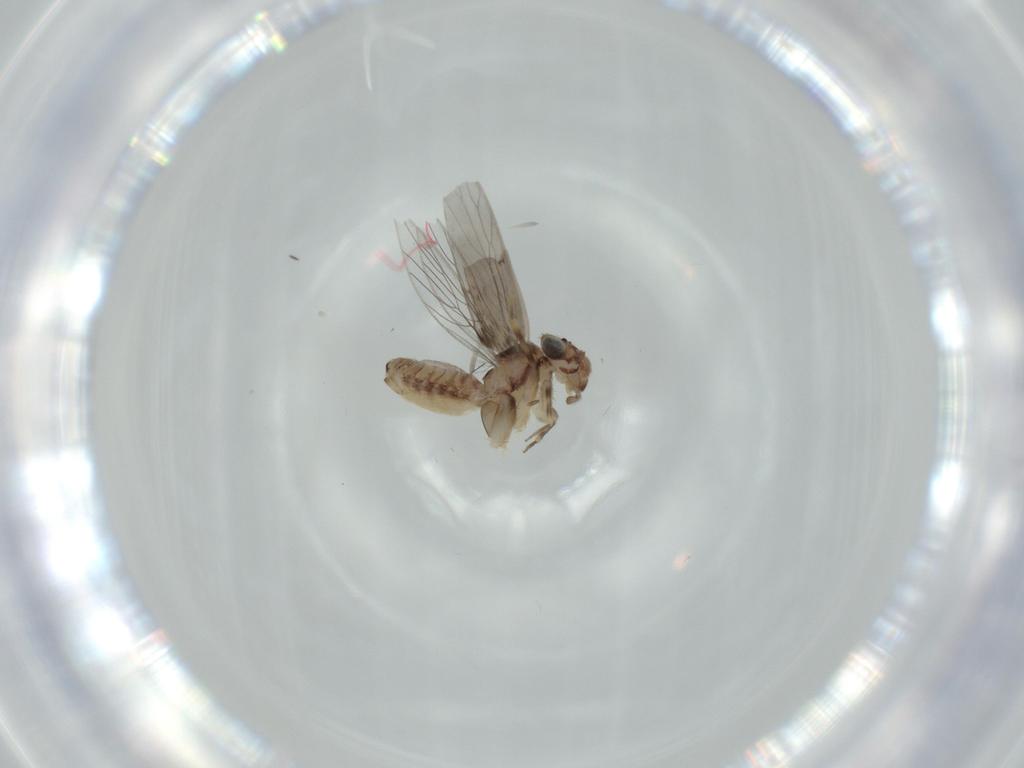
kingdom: Animalia
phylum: Arthropoda
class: Insecta
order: Psocodea
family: Lepidopsocidae
